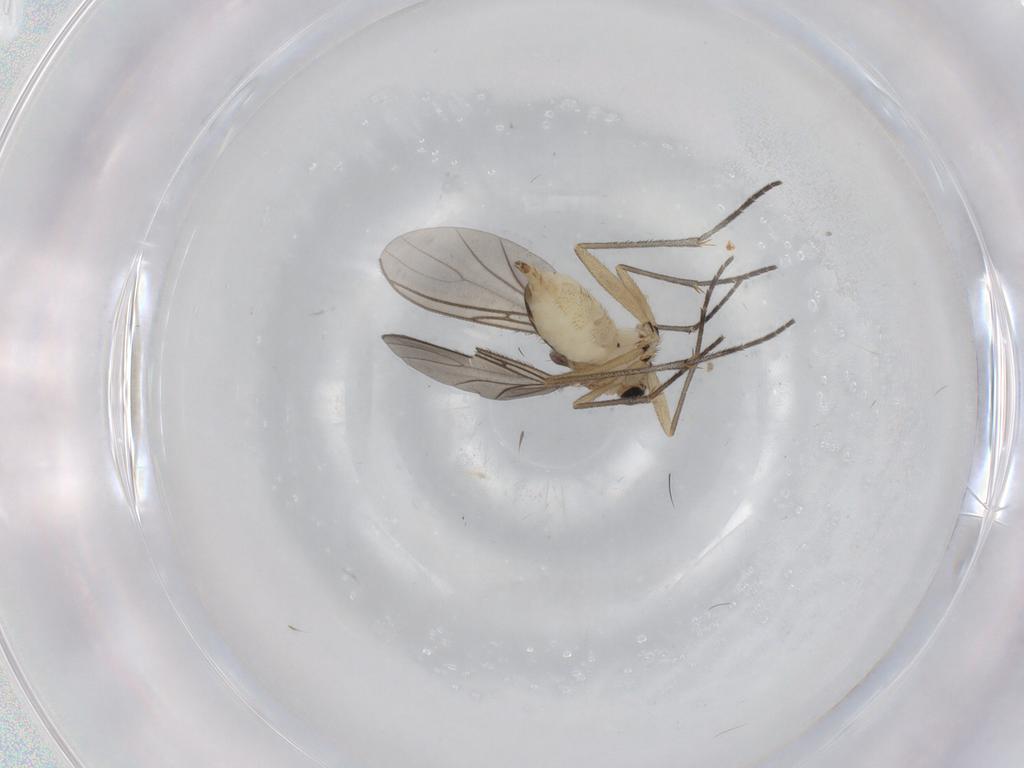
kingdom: Animalia
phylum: Arthropoda
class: Insecta
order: Diptera
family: Sciaridae
